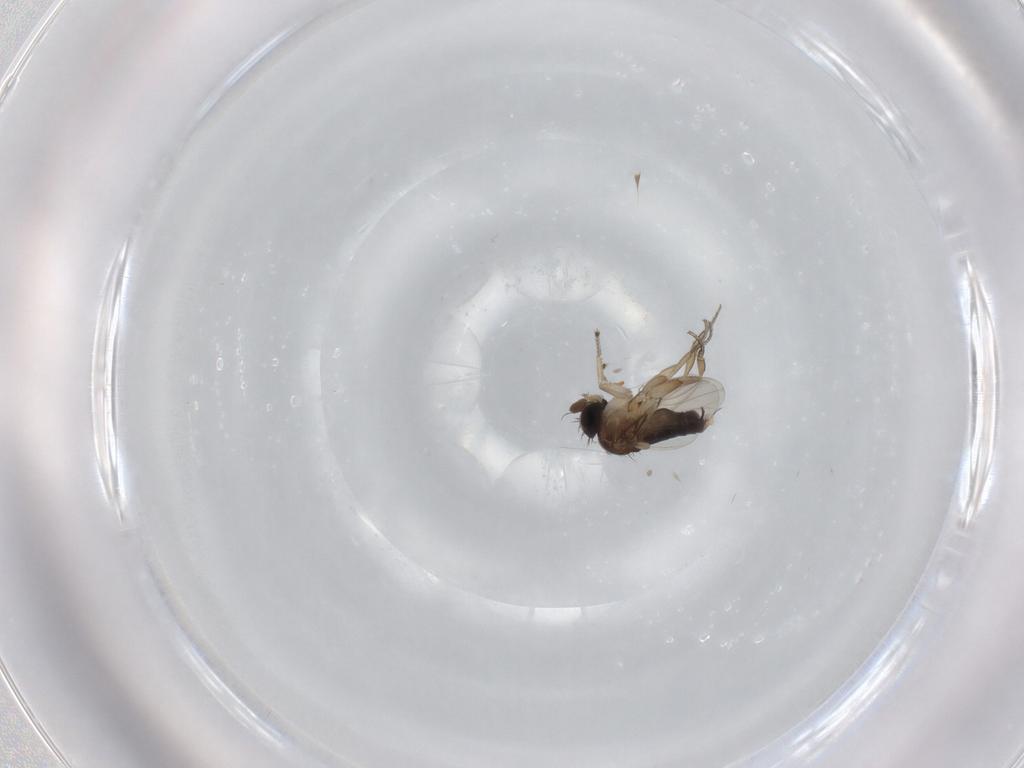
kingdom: Animalia
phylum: Arthropoda
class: Insecta
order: Diptera
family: Phoridae
